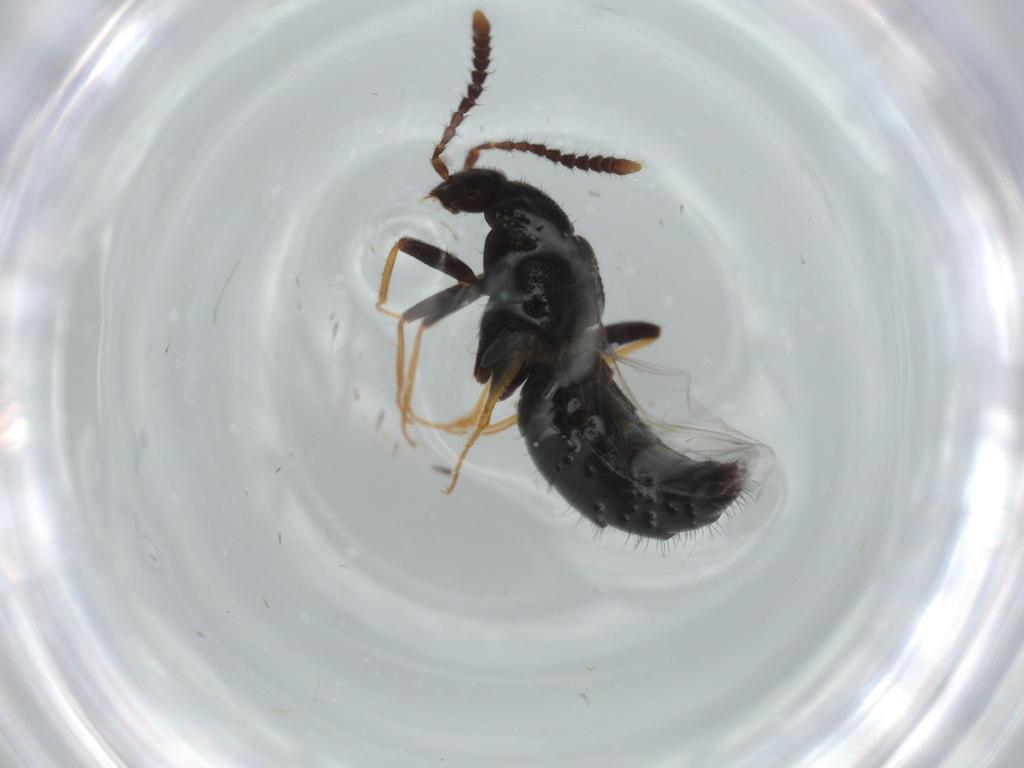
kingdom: Animalia
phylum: Arthropoda
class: Insecta
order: Coleoptera
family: Staphylinidae
